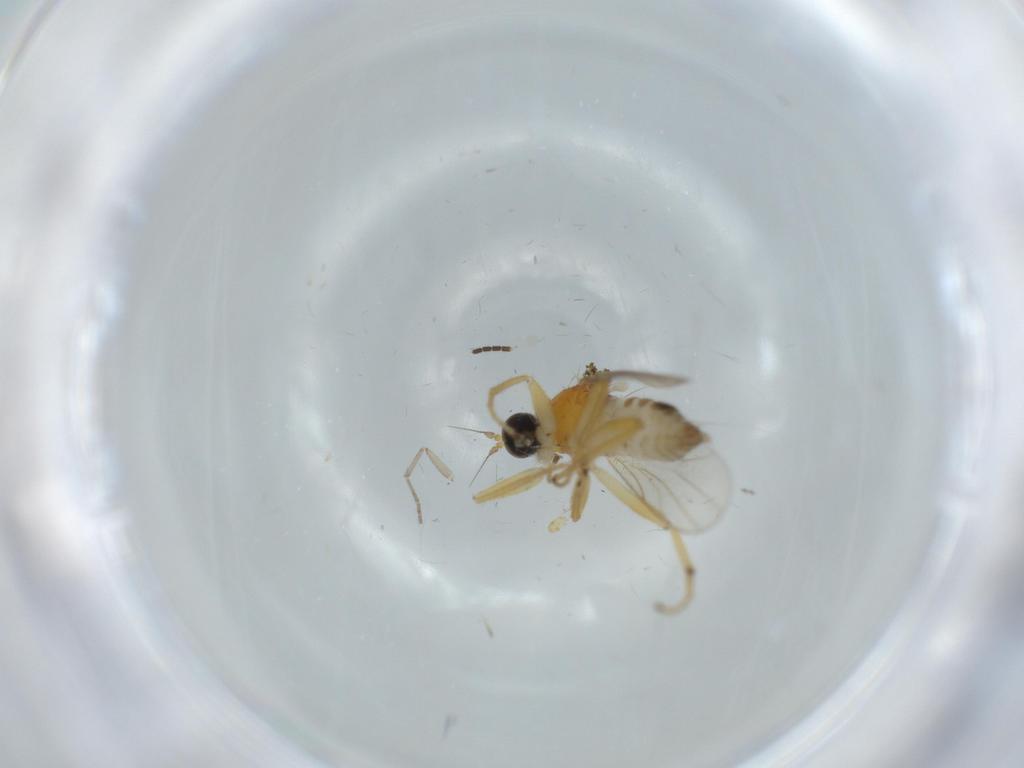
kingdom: Animalia
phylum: Arthropoda
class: Insecta
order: Diptera
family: Hybotidae
